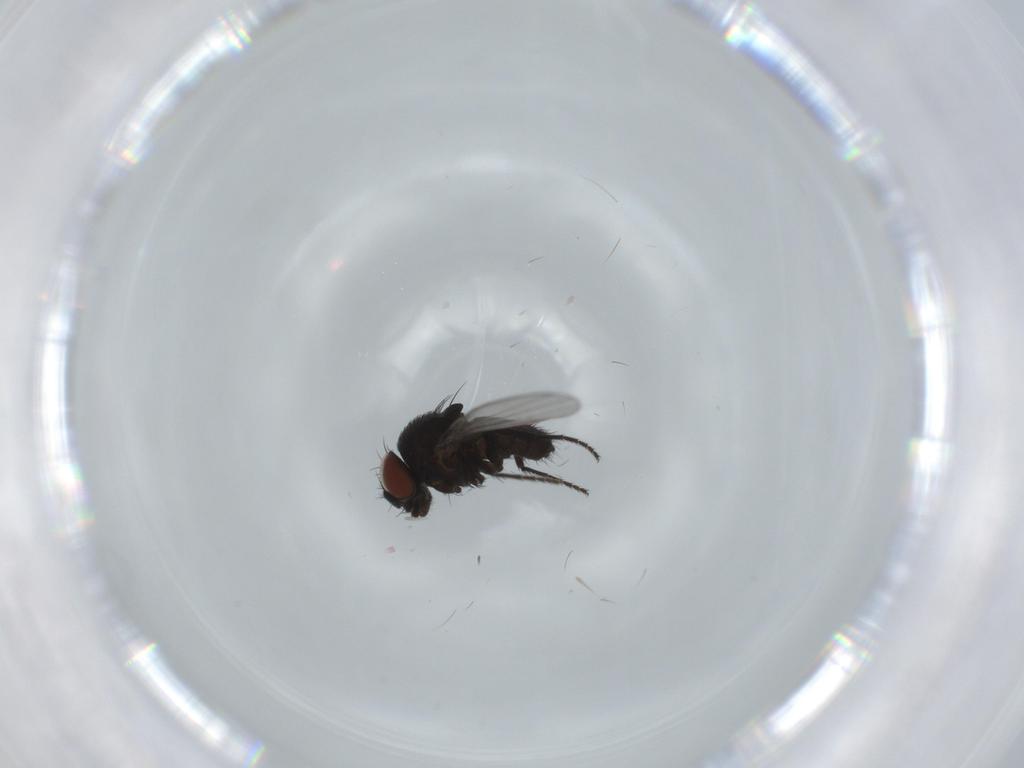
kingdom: Animalia
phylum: Arthropoda
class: Insecta
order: Diptera
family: Milichiidae
